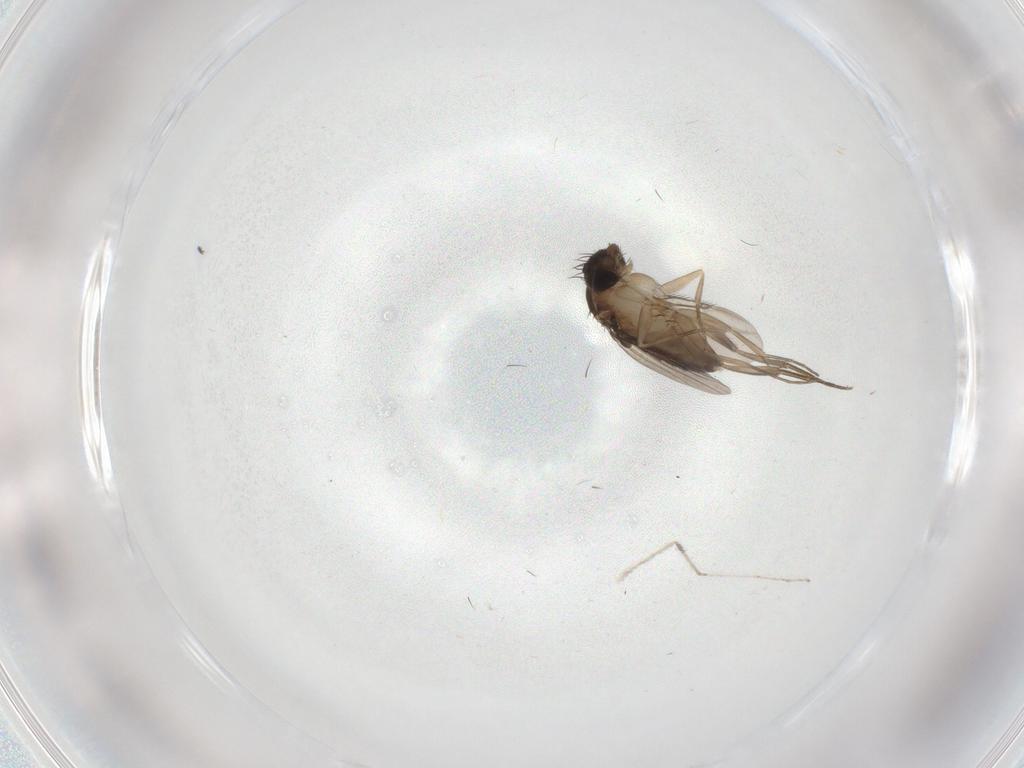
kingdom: Animalia
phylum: Arthropoda
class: Insecta
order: Diptera
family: Phoridae
